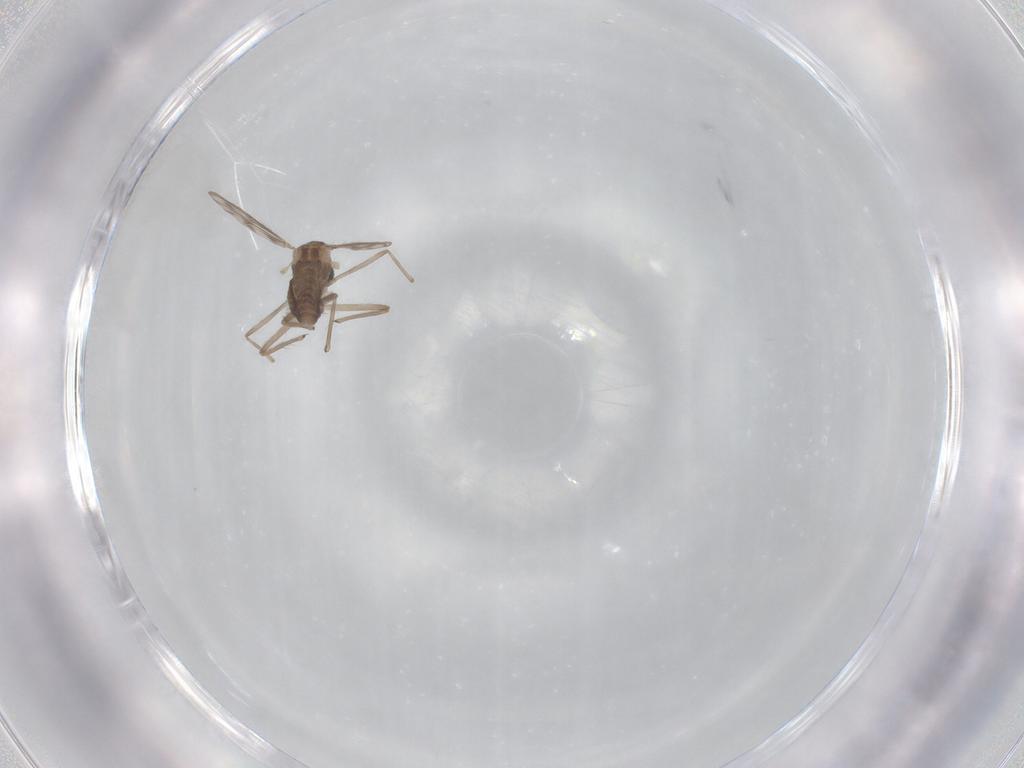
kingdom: Animalia
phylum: Arthropoda
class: Insecta
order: Diptera
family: Chironomidae
